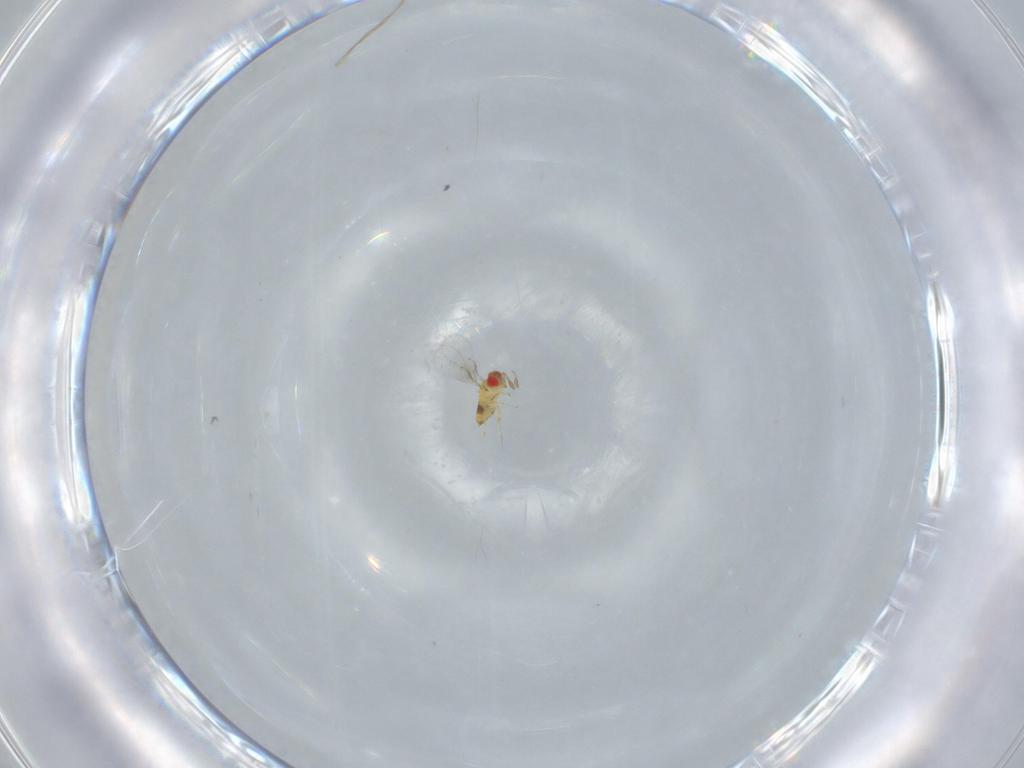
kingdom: Animalia
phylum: Arthropoda
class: Insecta
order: Hymenoptera
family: Trichogrammatidae
